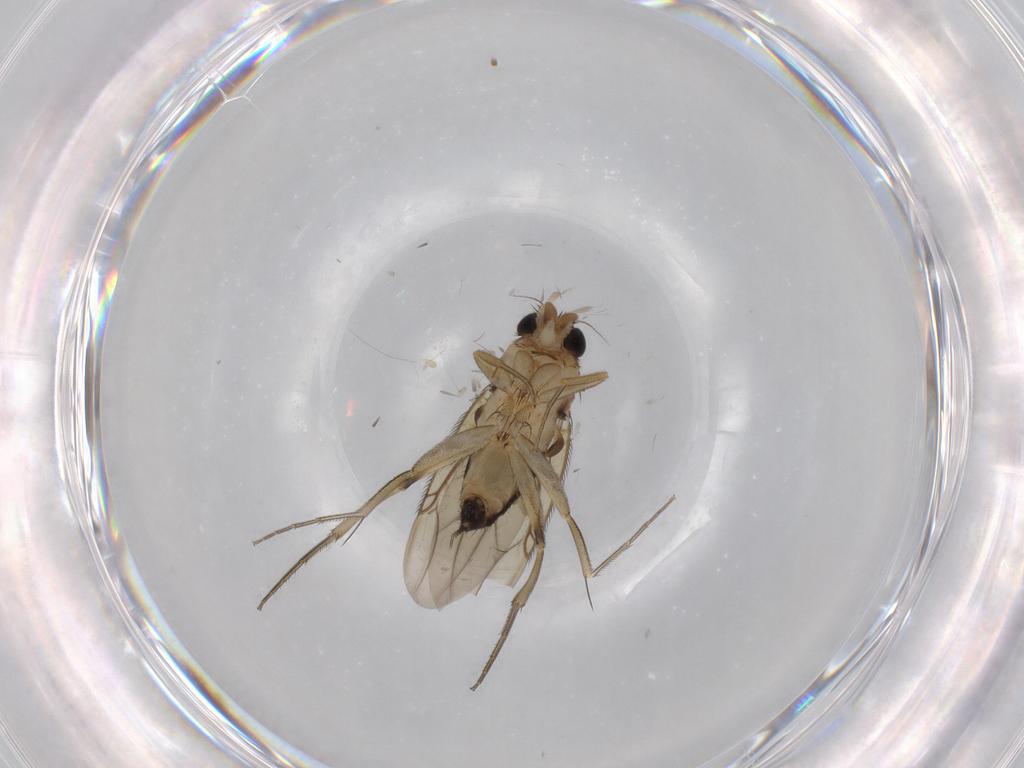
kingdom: Animalia
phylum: Arthropoda
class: Insecta
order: Diptera
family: Phoridae
